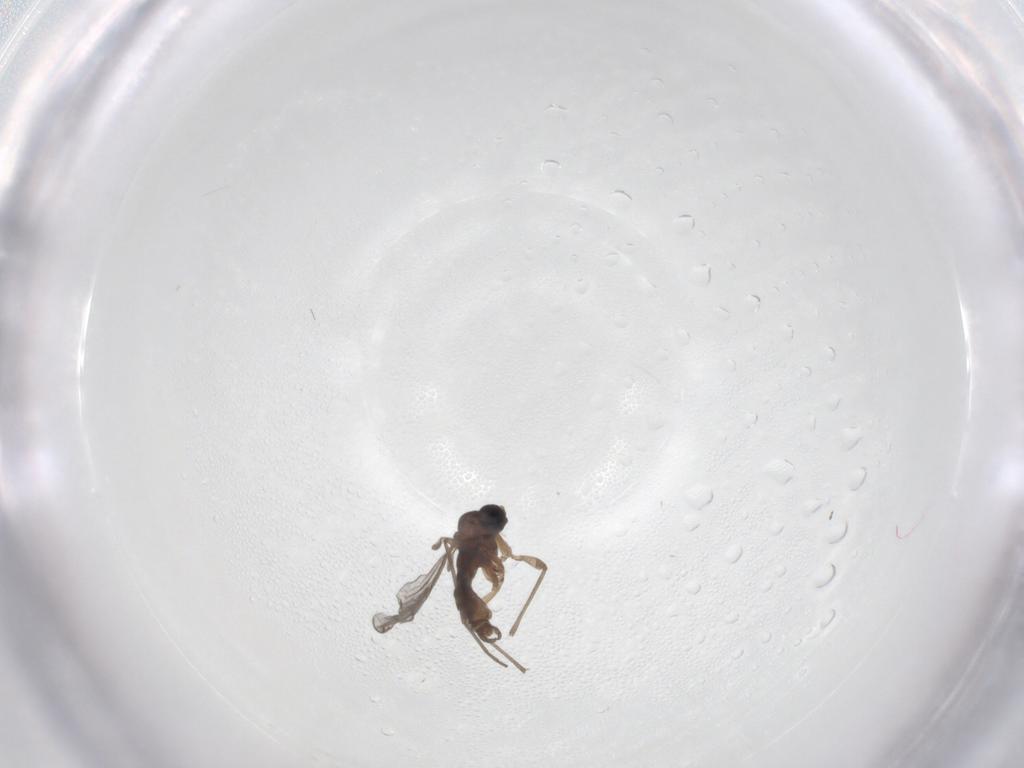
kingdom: Animalia
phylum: Arthropoda
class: Insecta
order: Diptera
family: Sciaridae
